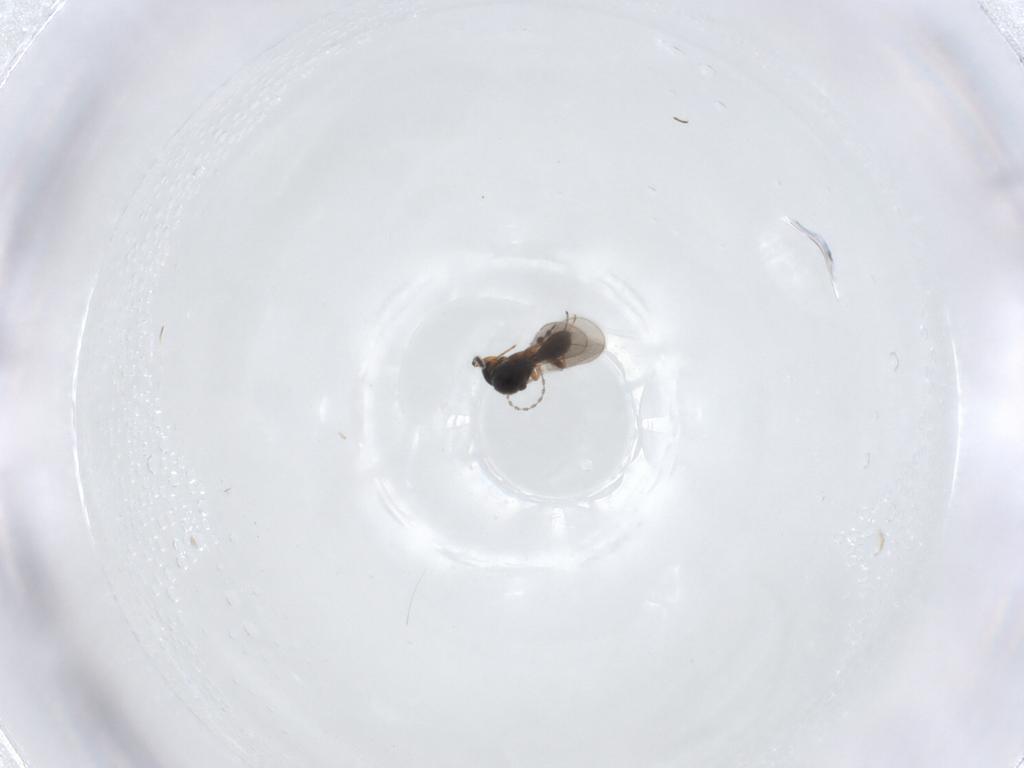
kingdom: Animalia
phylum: Arthropoda
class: Insecta
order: Hymenoptera
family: Platygastridae
